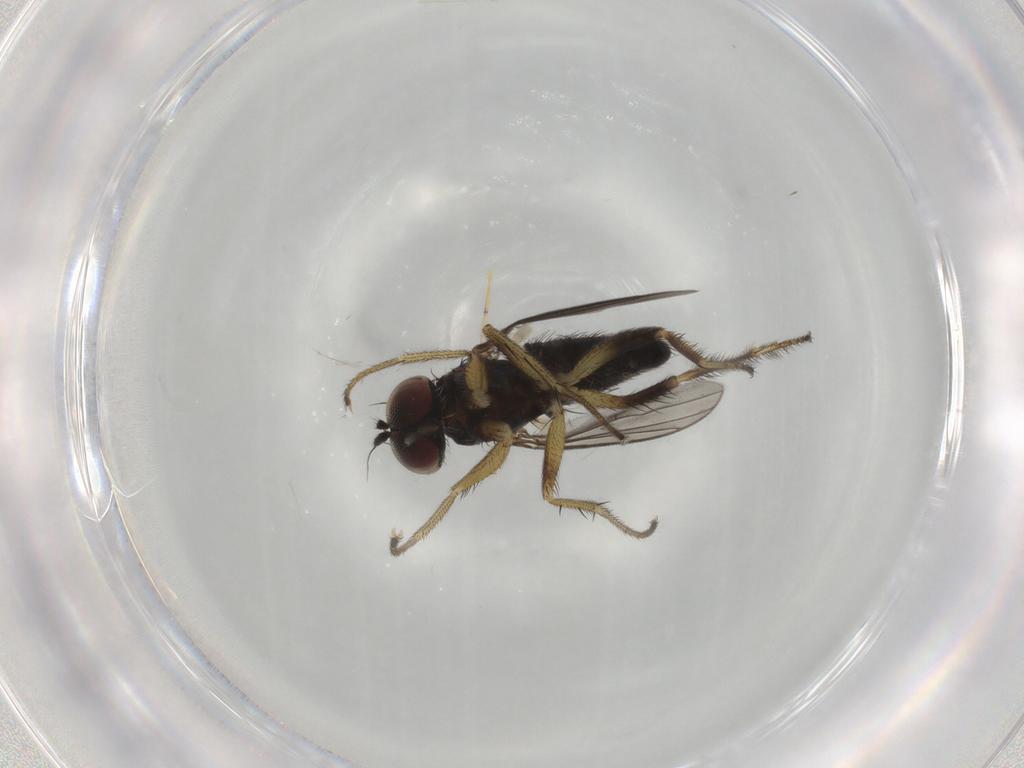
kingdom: Animalia
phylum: Arthropoda
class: Insecta
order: Diptera
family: Dolichopodidae
